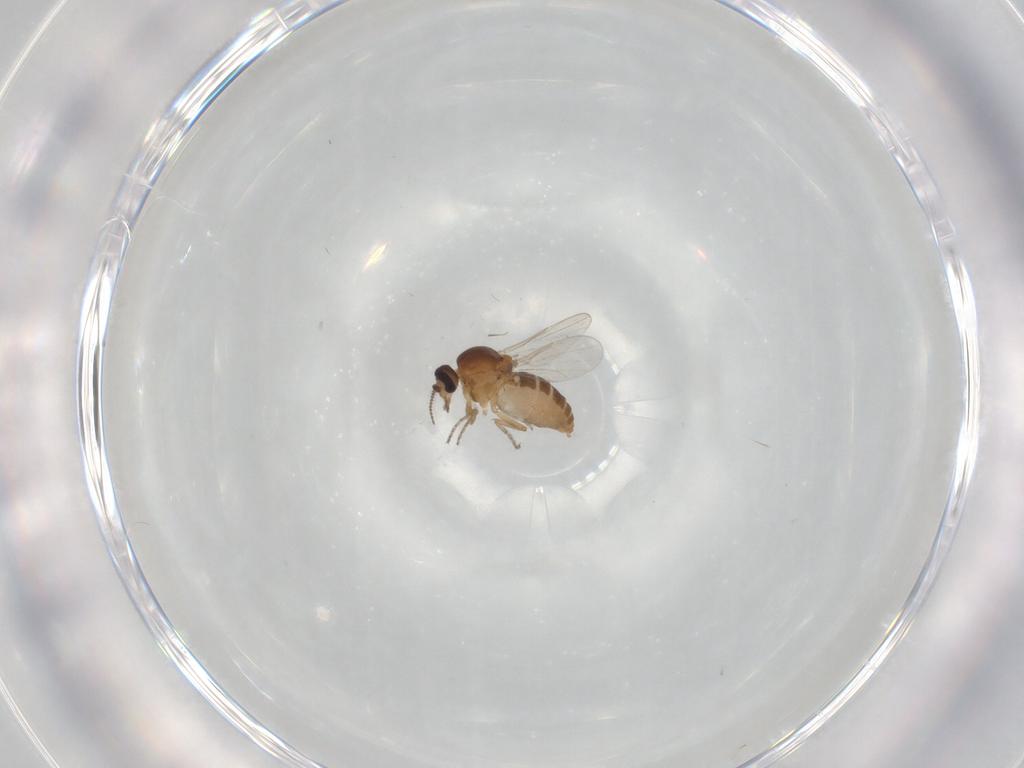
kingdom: Animalia
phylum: Arthropoda
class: Insecta
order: Diptera
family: Ceratopogonidae
